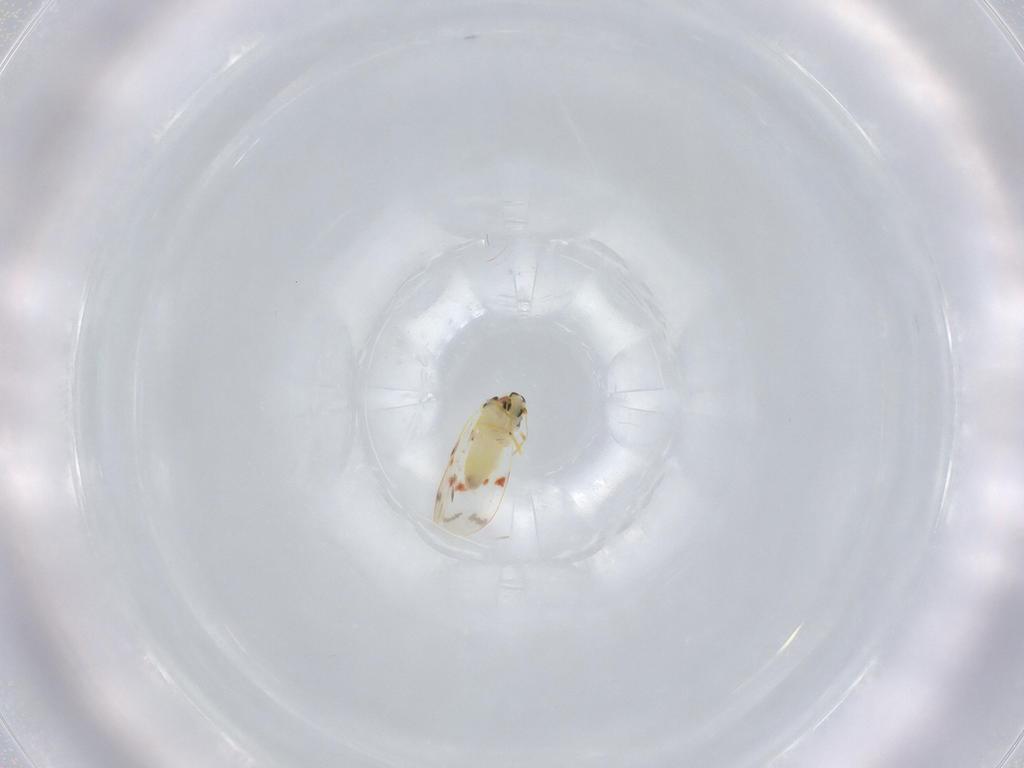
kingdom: Animalia
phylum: Arthropoda
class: Insecta
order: Hemiptera
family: Aleyrodidae
